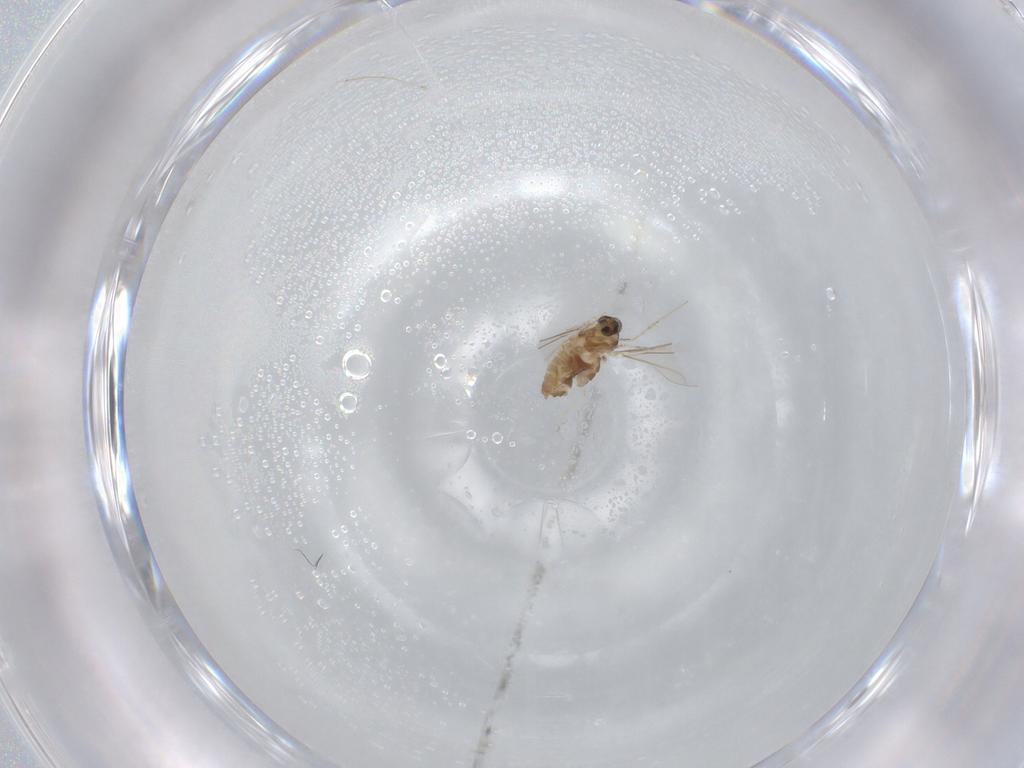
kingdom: Animalia
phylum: Arthropoda
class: Insecta
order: Diptera
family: Cecidomyiidae
